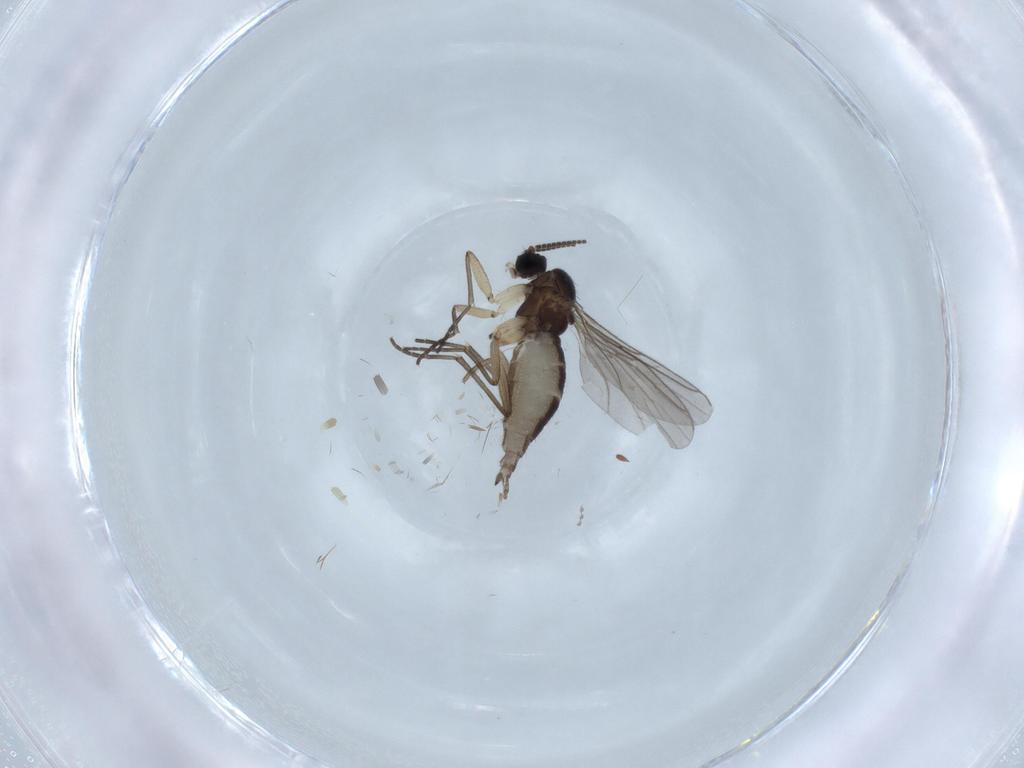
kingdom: Animalia
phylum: Arthropoda
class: Insecta
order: Diptera
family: Sciaridae
